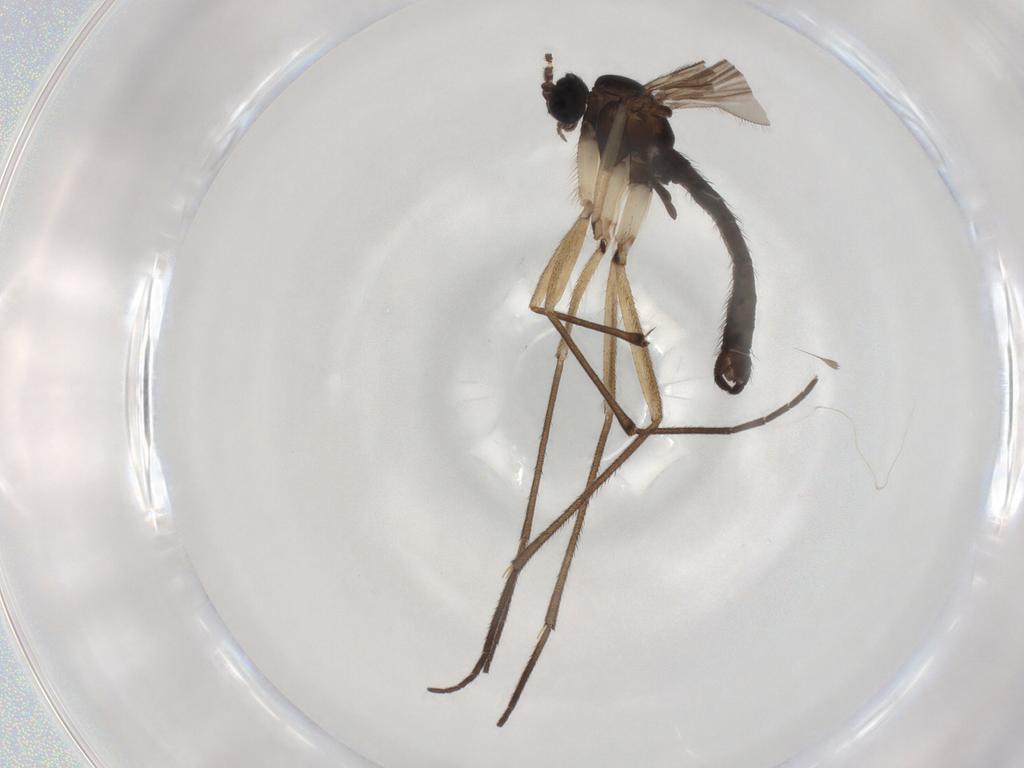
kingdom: Animalia
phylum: Arthropoda
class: Insecta
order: Diptera
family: Sciaridae
